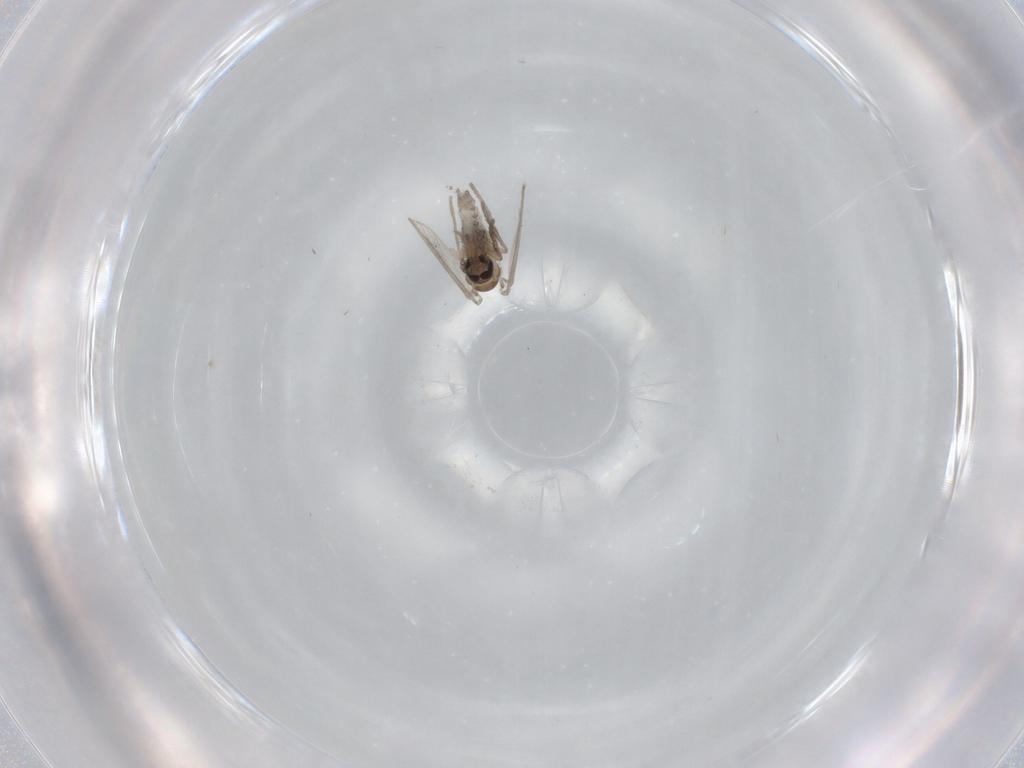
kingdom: Animalia
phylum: Arthropoda
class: Insecta
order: Diptera
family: Psychodidae
